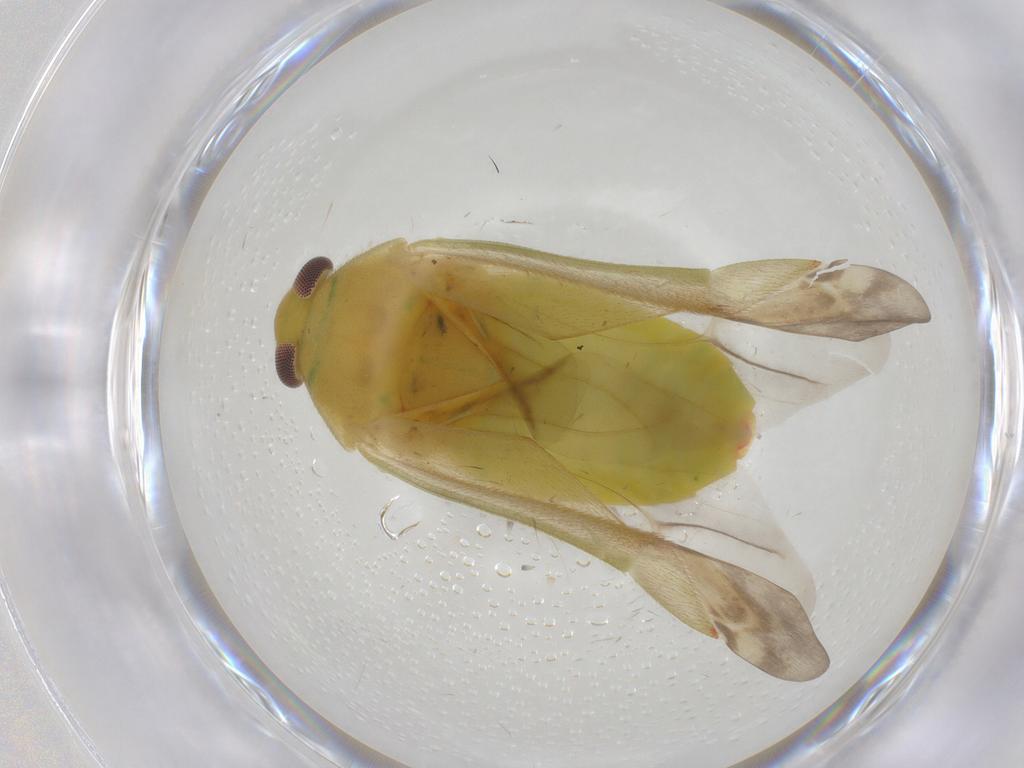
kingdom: Animalia
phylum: Arthropoda
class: Insecta
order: Hemiptera
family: Miridae
